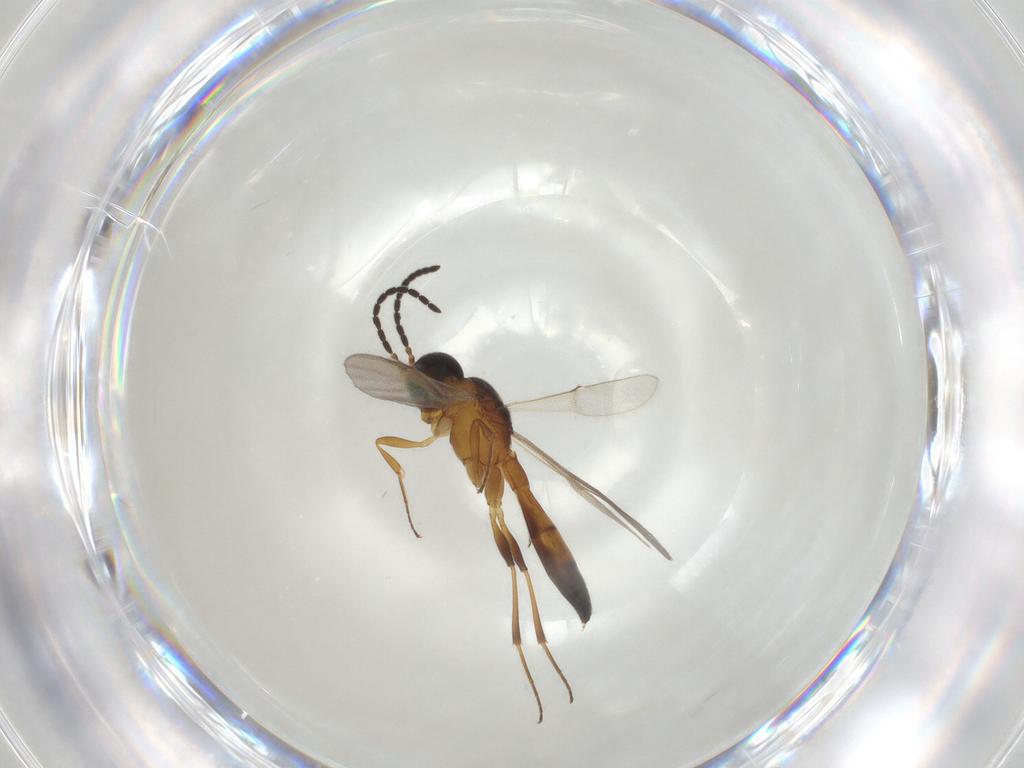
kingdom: Animalia
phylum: Arthropoda
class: Insecta
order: Hymenoptera
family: Scelionidae
